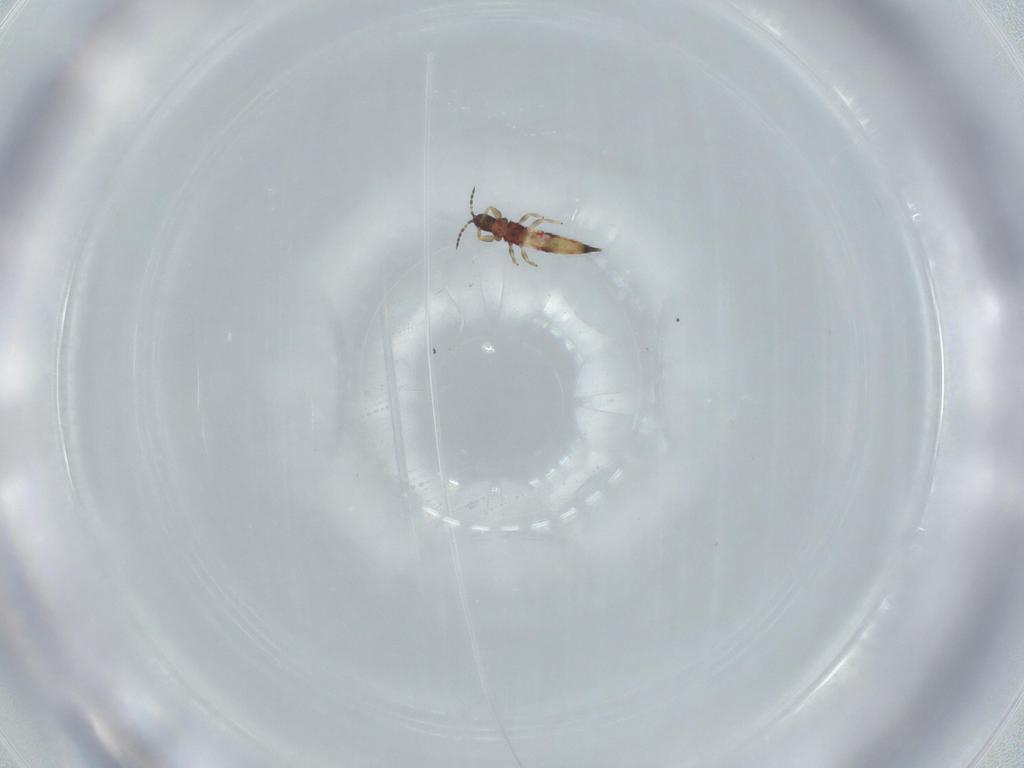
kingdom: Animalia
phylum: Arthropoda
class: Insecta
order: Thysanoptera
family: Phlaeothripidae
